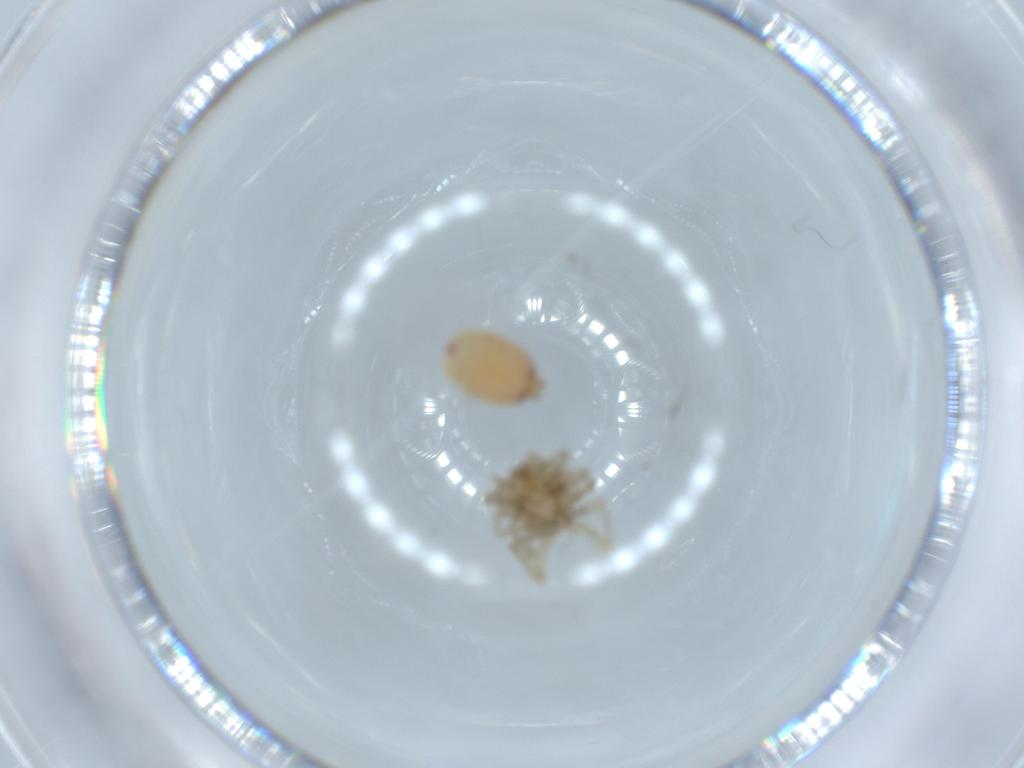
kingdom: Animalia
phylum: Arthropoda
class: Arachnida
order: Araneae
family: Clubionidae
